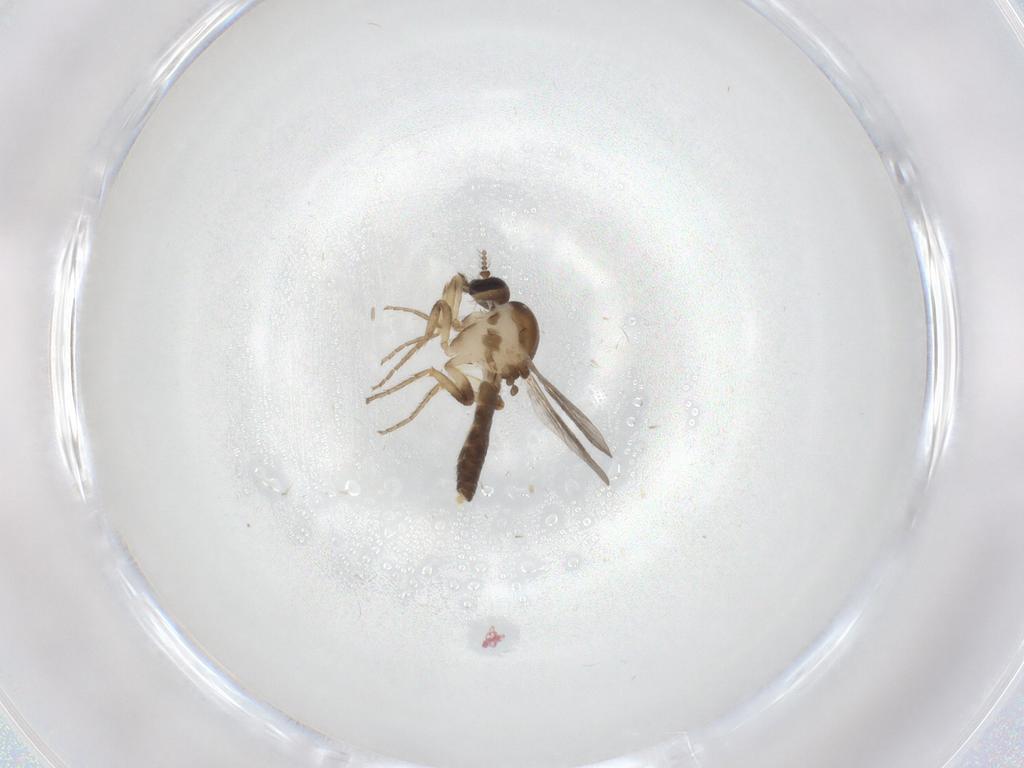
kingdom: Animalia
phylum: Arthropoda
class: Insecta
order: Diptera
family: Ceratopogonidae
